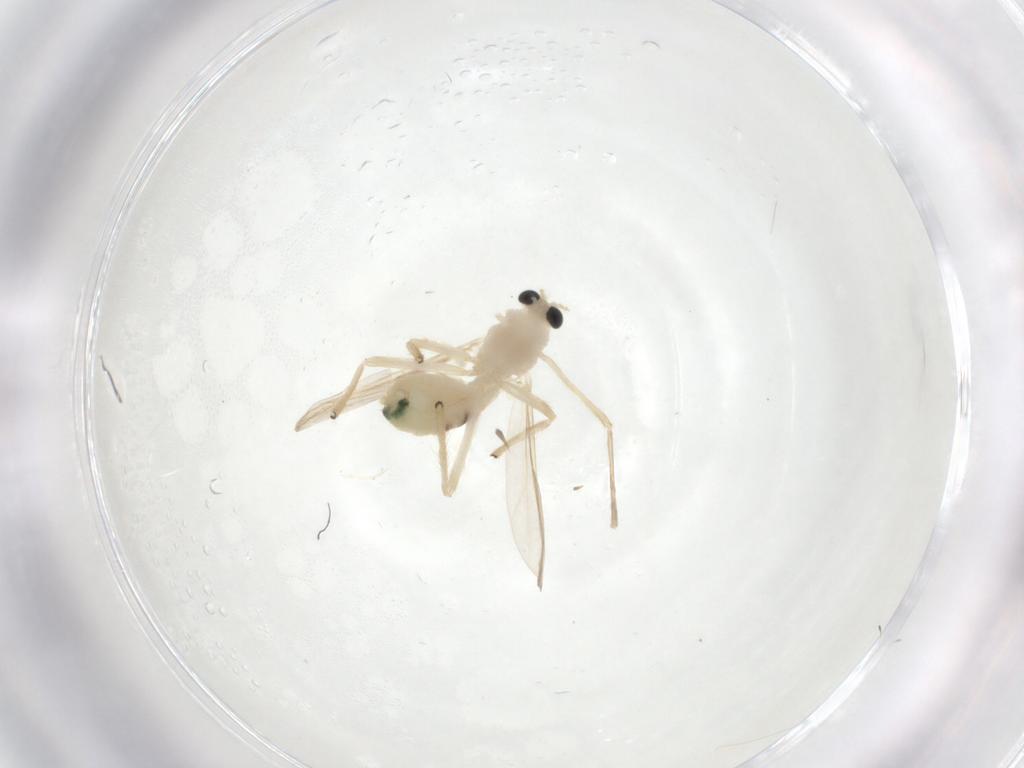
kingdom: Animalia
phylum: Arthropoda
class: Insecta
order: Diptera
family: Chironomidae
